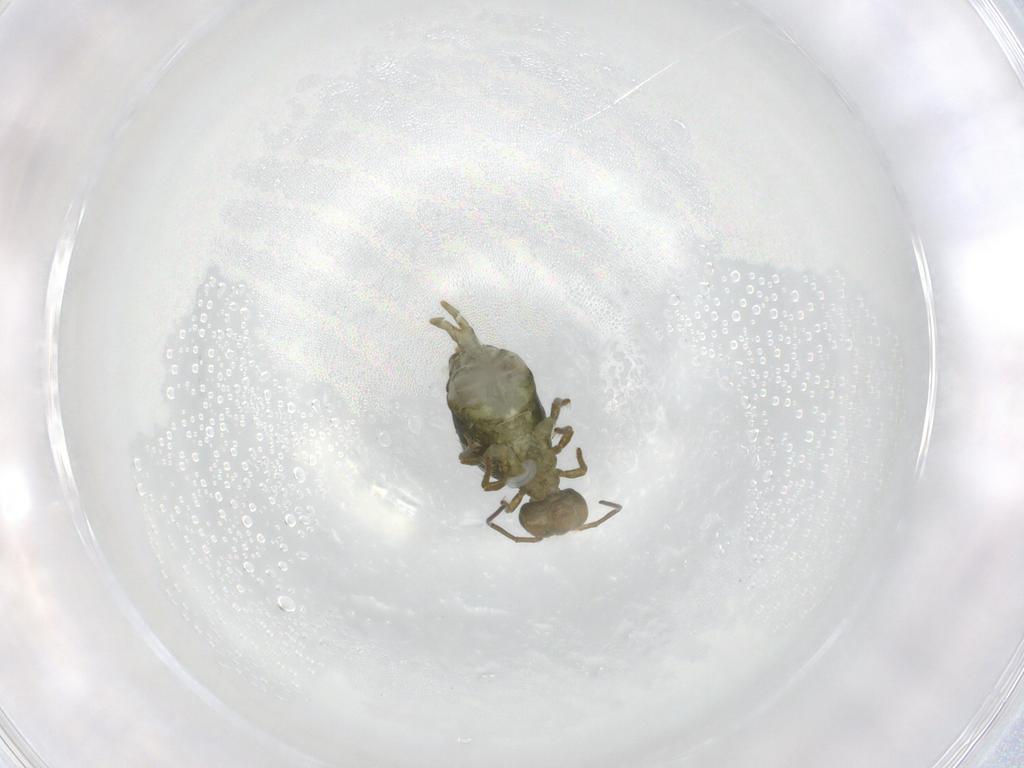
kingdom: Animalia
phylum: Arthropoda
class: Collembola
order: Symphypleona
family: Sminthuridae
